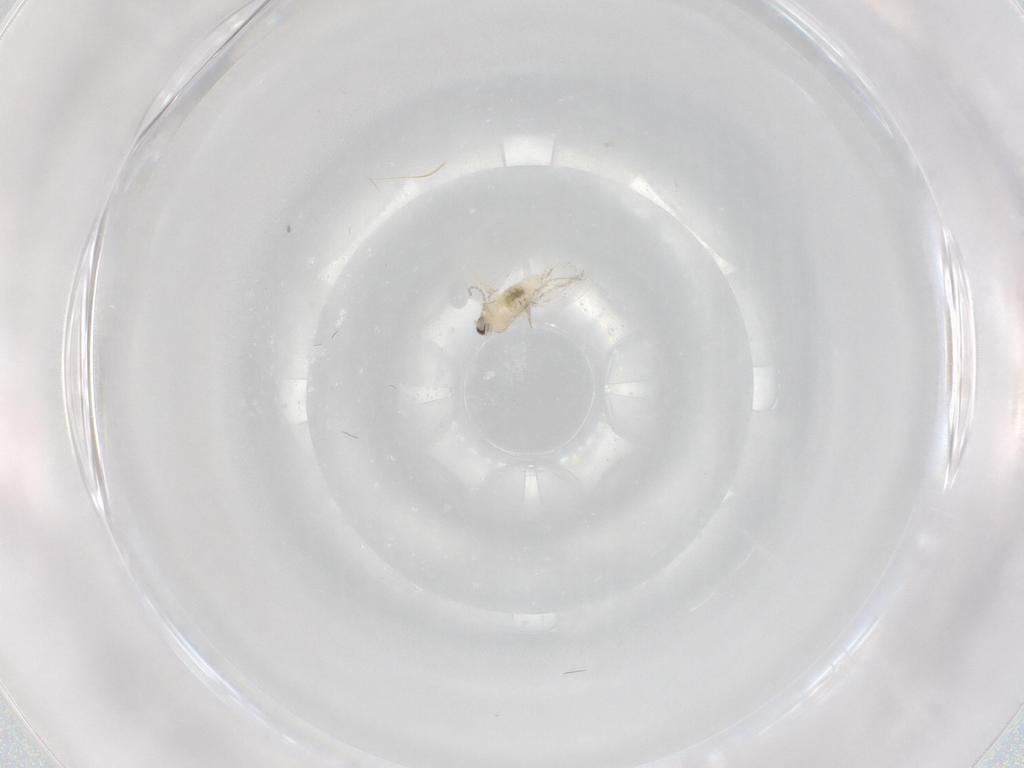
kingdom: Animalia
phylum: Arthropoda
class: Insecta
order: Diptera
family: Cecidomyiidae
